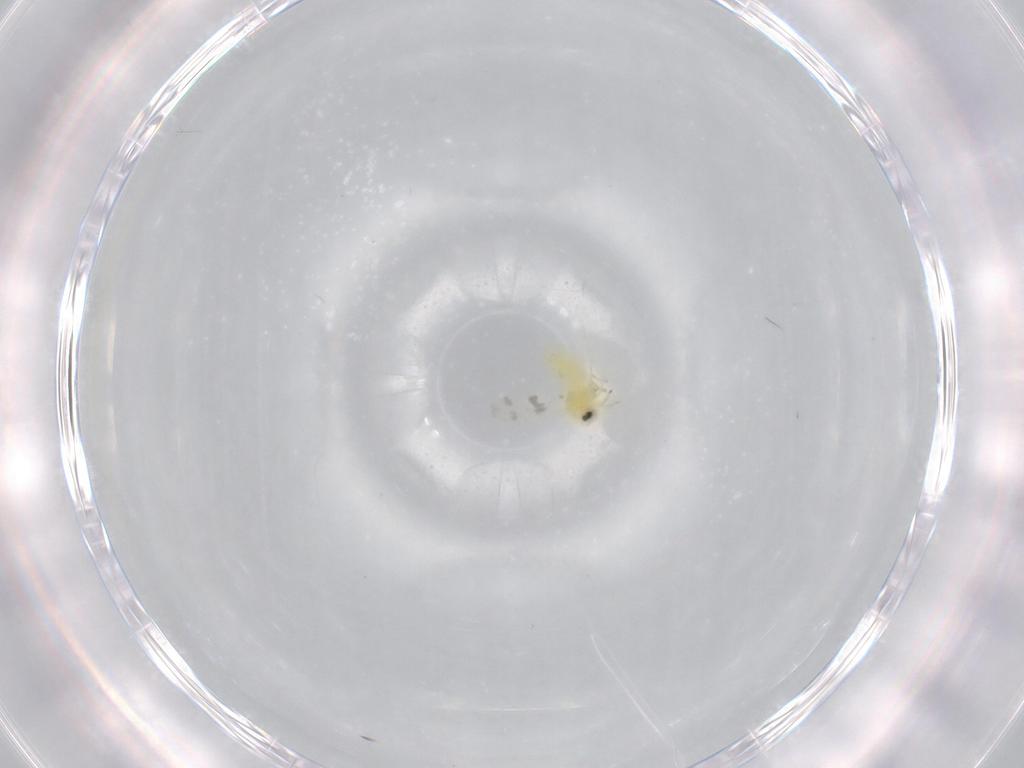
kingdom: Animalia
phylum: Arthropoda
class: Insecta
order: Hemiptera
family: Aleyrodidae
